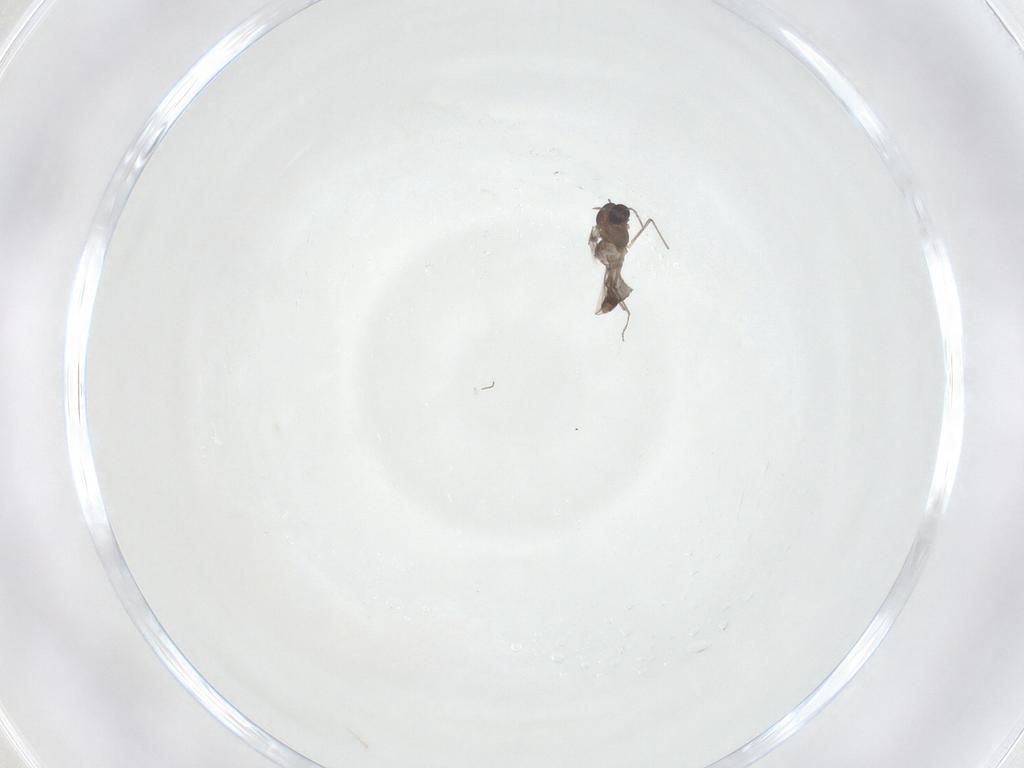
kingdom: Animalia
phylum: Arthropoda
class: Insecta
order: Diptera
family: Chironomidae
